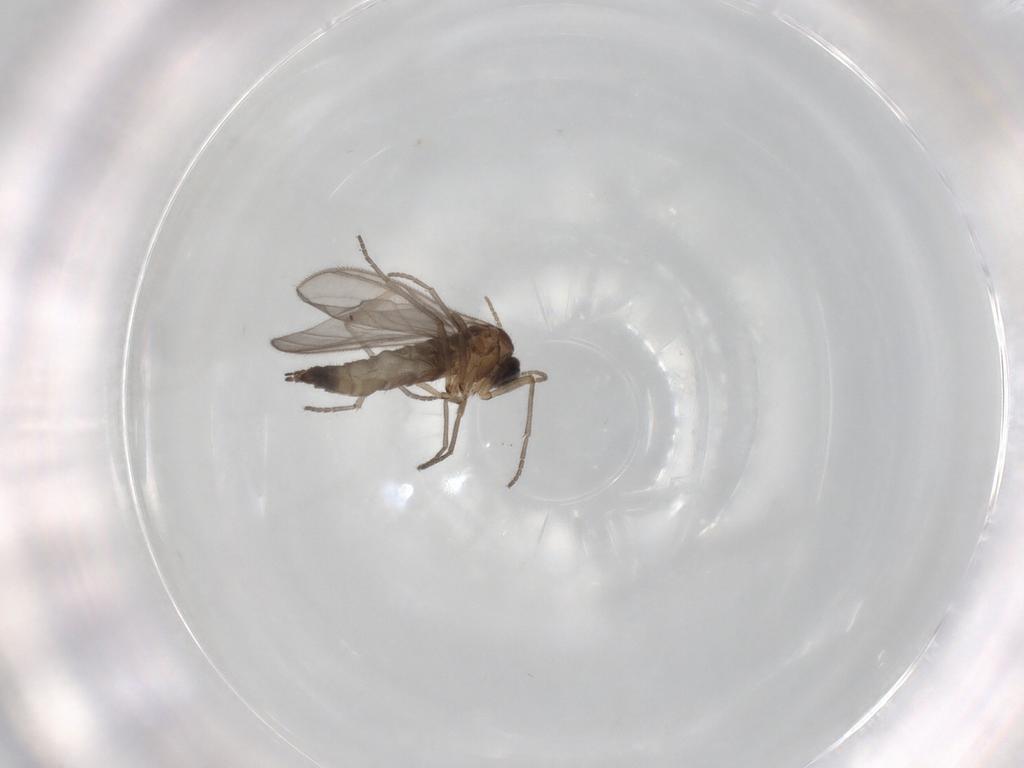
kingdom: Animalia
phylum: Arthropoda
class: Insecta
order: Diptera
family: Sciaridae
